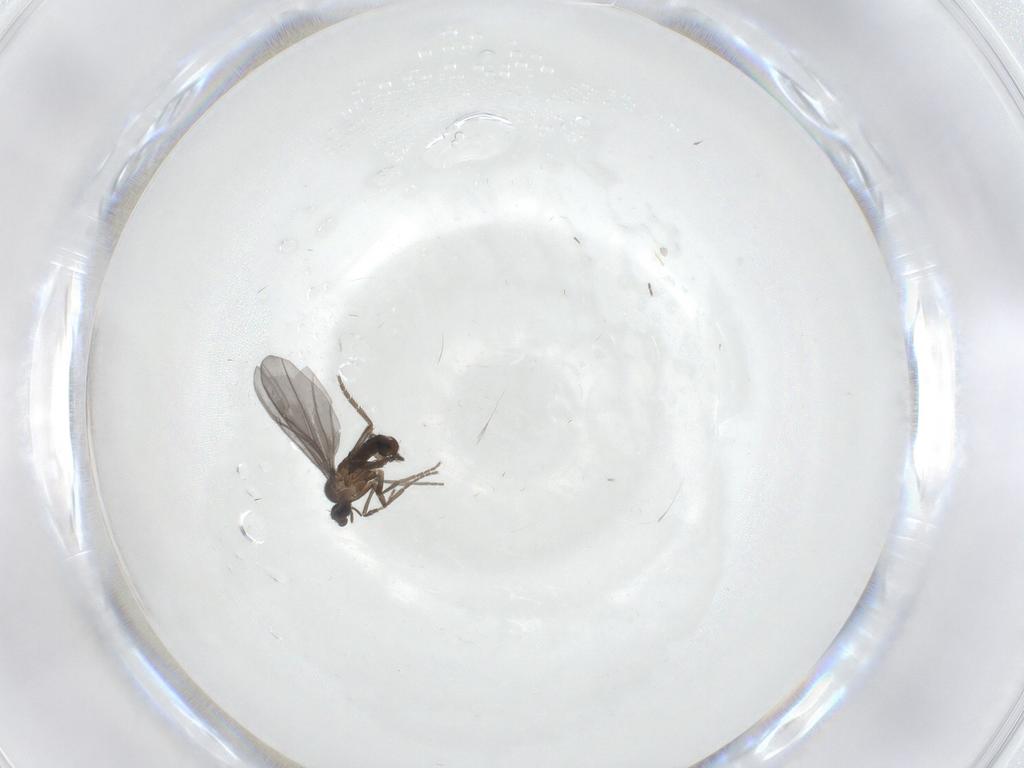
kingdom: Animalia
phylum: Arthropoda
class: Insecta
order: Diptera
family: Phoridae
